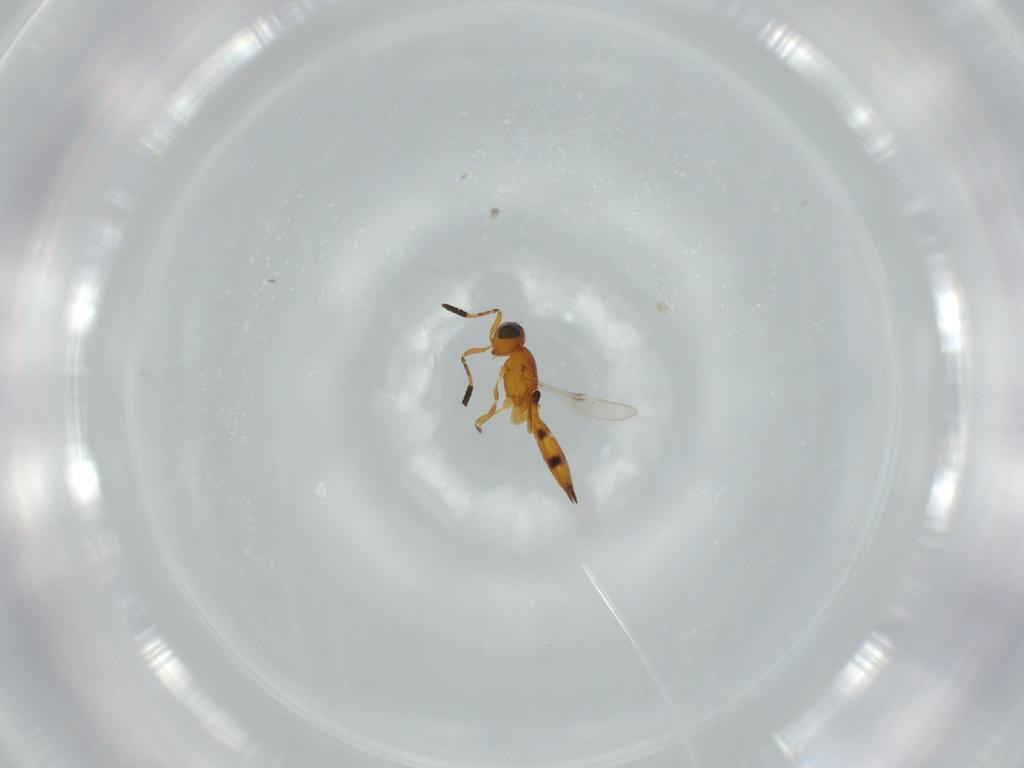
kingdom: Animalia
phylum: Arthropoda
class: Insecta
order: Hymenoptera
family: Scelionidae
